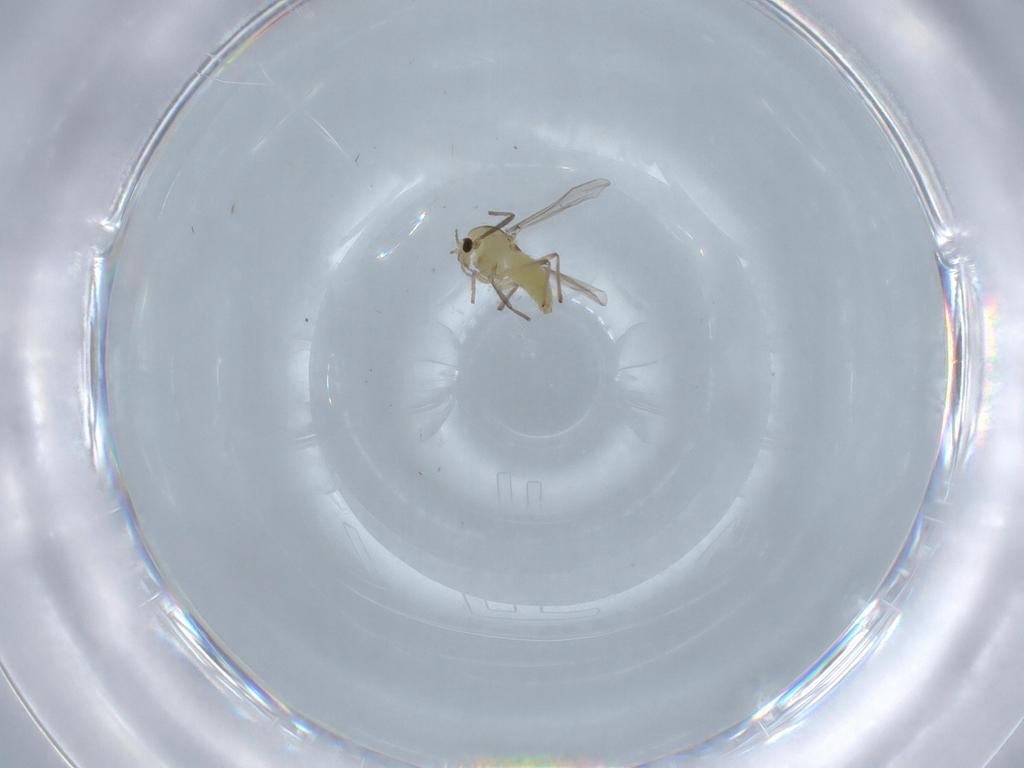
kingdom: Animalia
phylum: Arthropoda
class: Insecta
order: Diptera
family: Chironomidae
